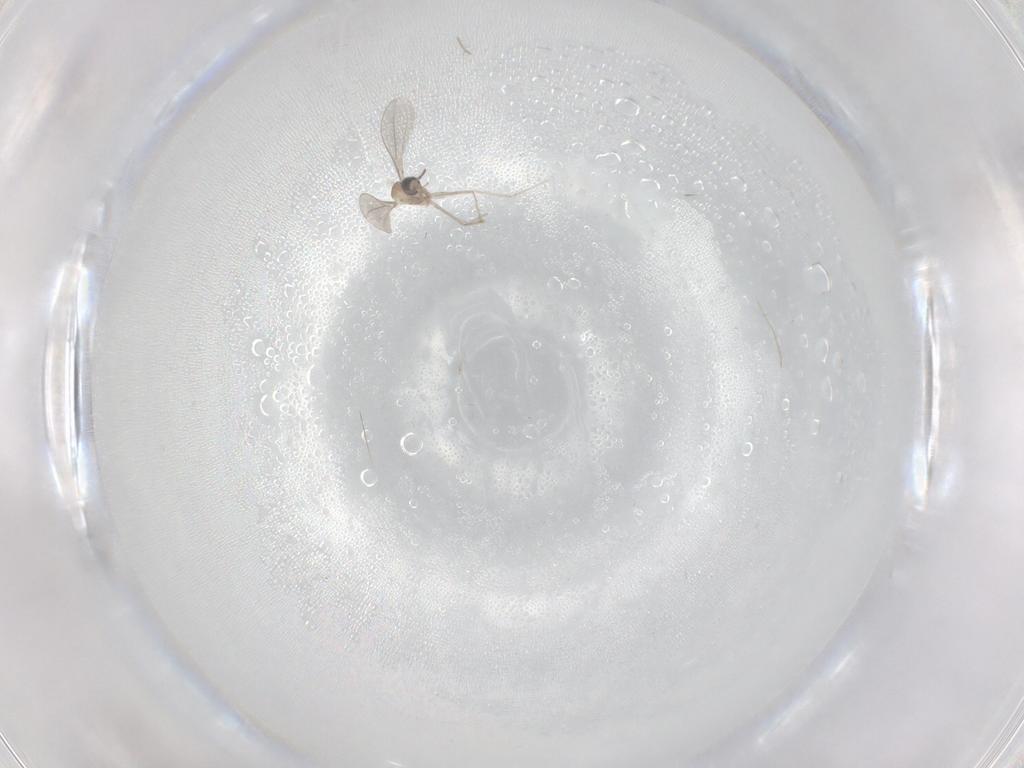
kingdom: Animalia
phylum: Arthropoda
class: Insecta
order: Diptera
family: Cecidomyiidae
